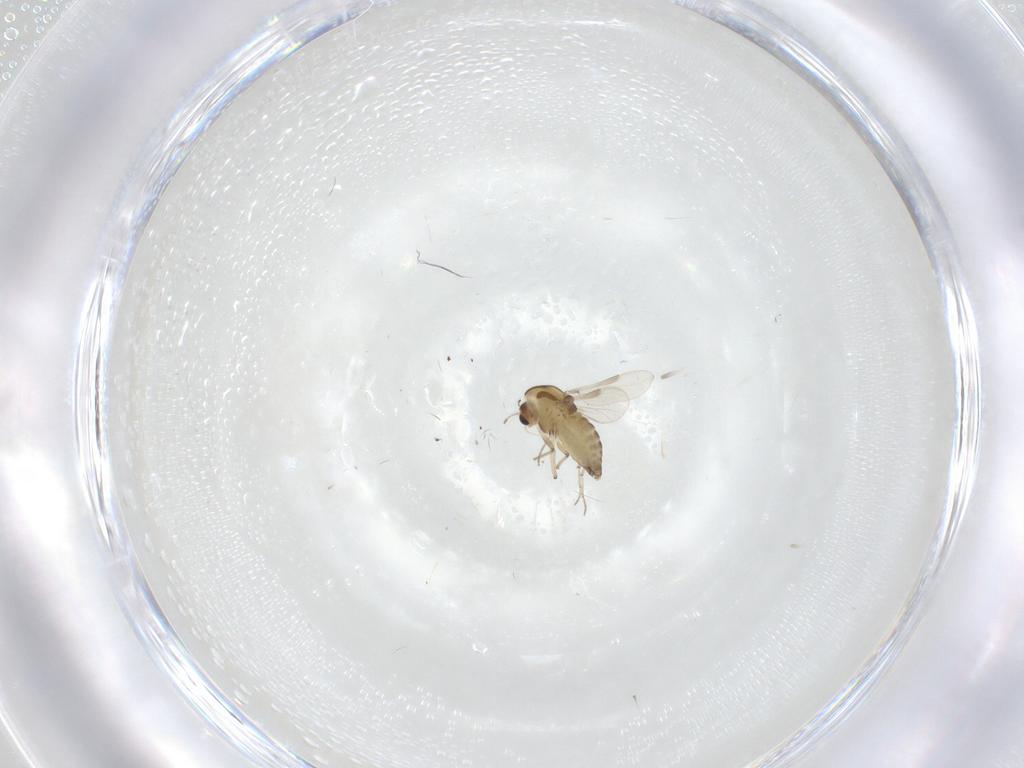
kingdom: Animalia
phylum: Arthropoda
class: Insecta
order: Diptera
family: Chironomidae
